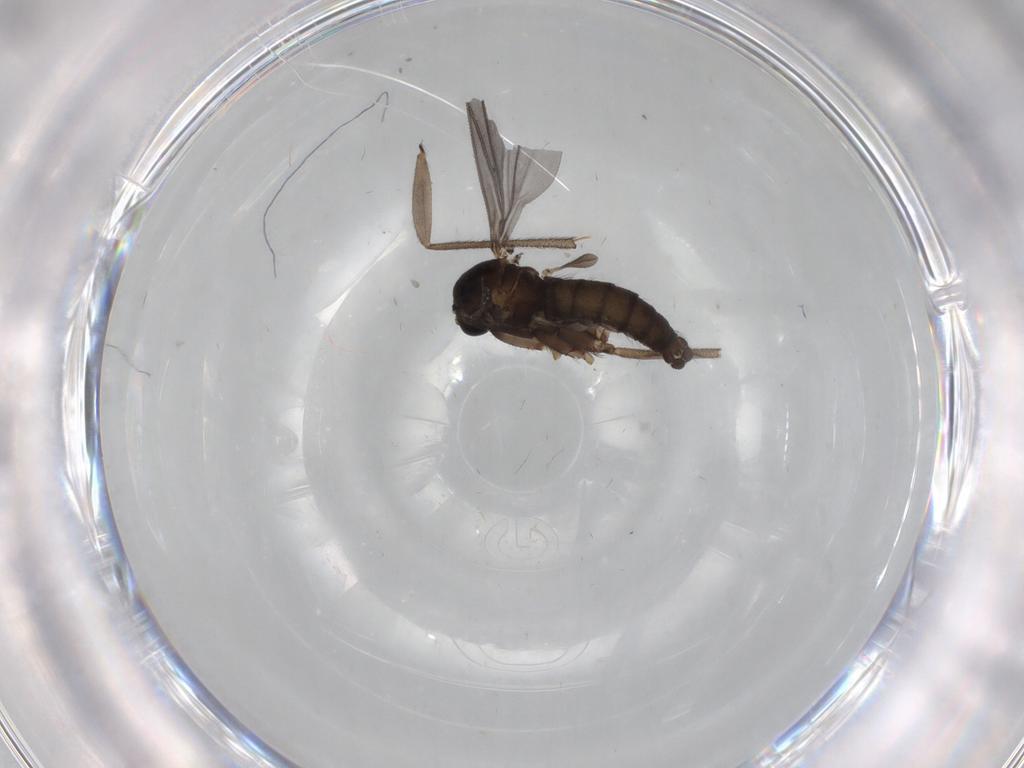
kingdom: Animalia
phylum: Arthropoda
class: Insecta
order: Diptera
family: Sciaridae
